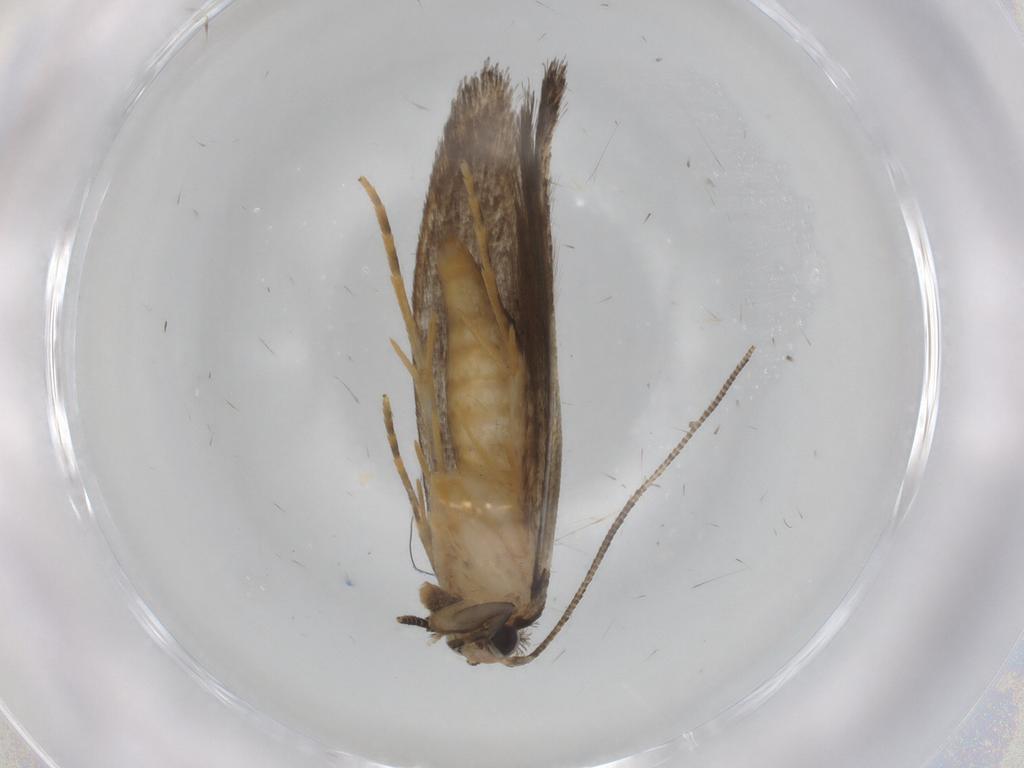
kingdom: Animalia
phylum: Arthropoda
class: Insecta
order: Lepidoptera
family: Tineidae
